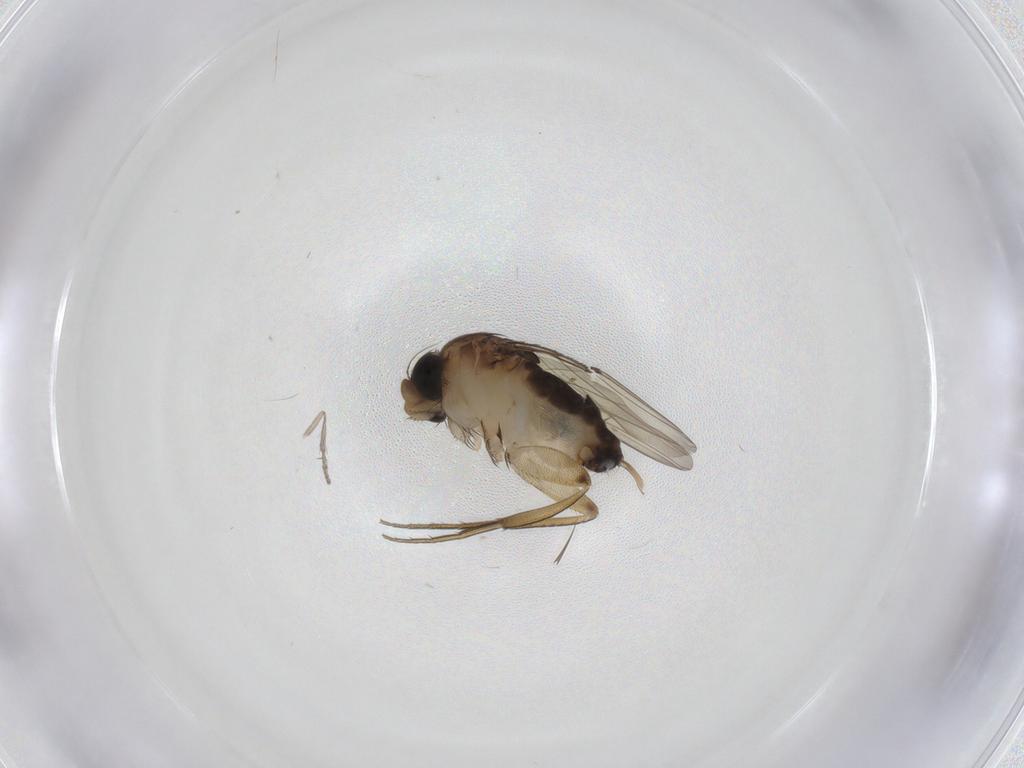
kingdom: Animalia
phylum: Arthropoda
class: Insecta
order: Diptera
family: Phoridae
